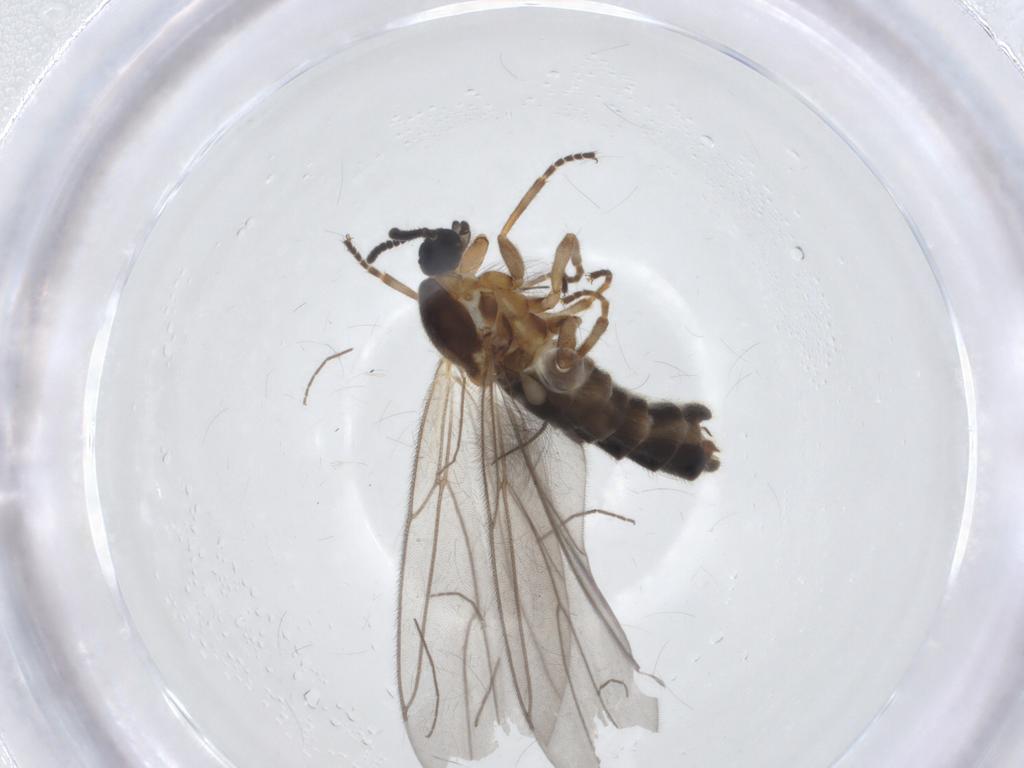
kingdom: Animalia
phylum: Arthropoda
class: Insecta
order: Diptera
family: Scatopsidae
